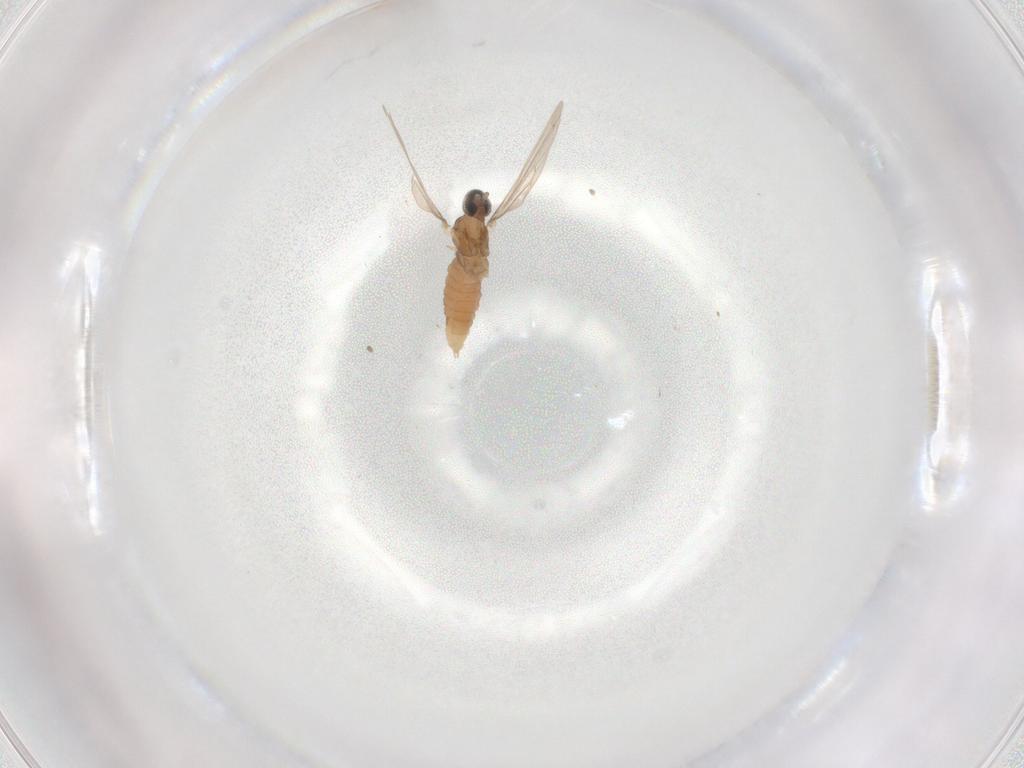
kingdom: Animalia
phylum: Arthropoda
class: Insecta
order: Diptera
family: Cecidomyiidae
